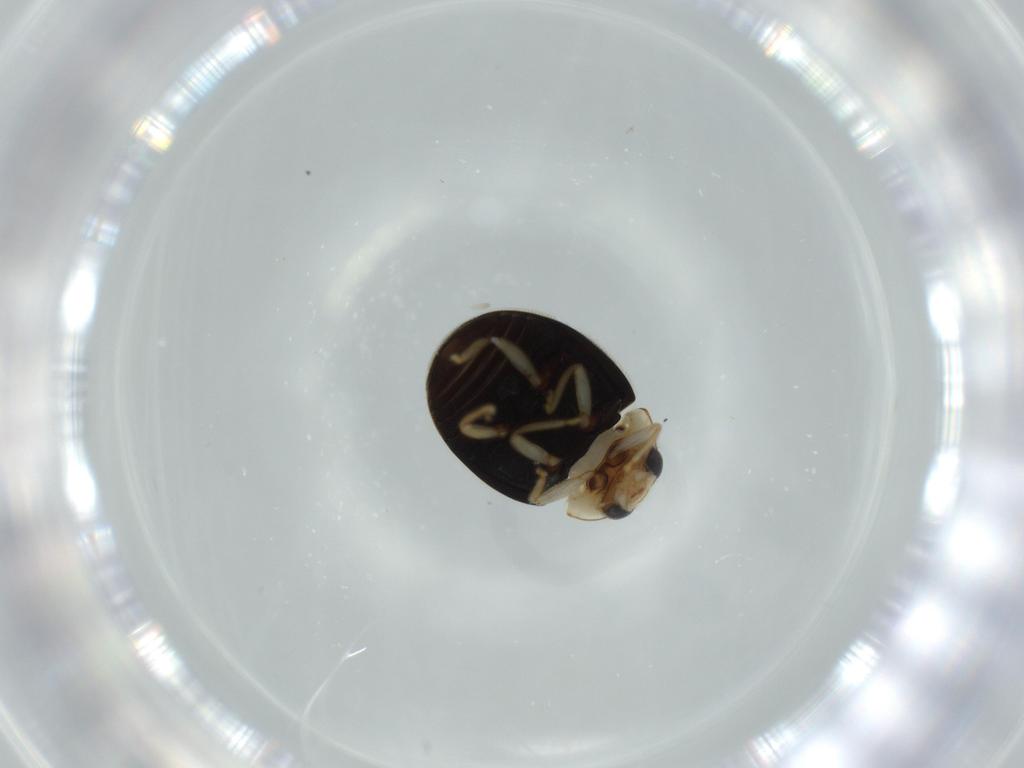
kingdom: Animalia
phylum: Arthropoda
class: Insecta
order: Coleoptera
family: Coccinellidae
